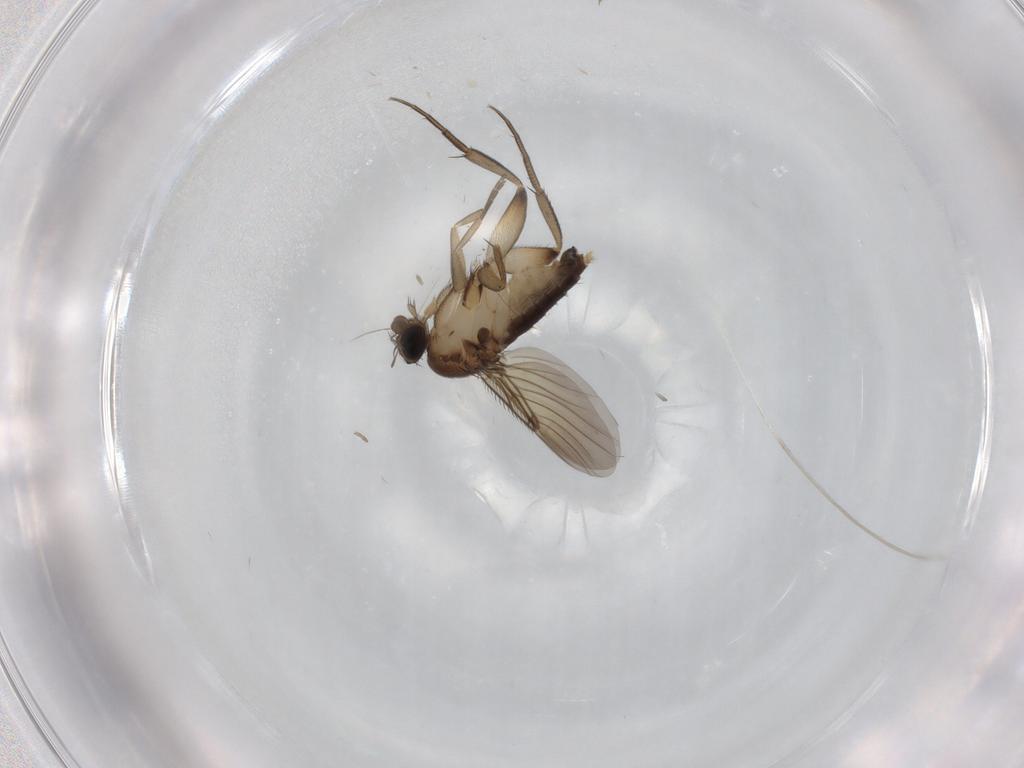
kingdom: Animalia
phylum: Arthropoda
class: Insecta
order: Diptera
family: Phoridae
